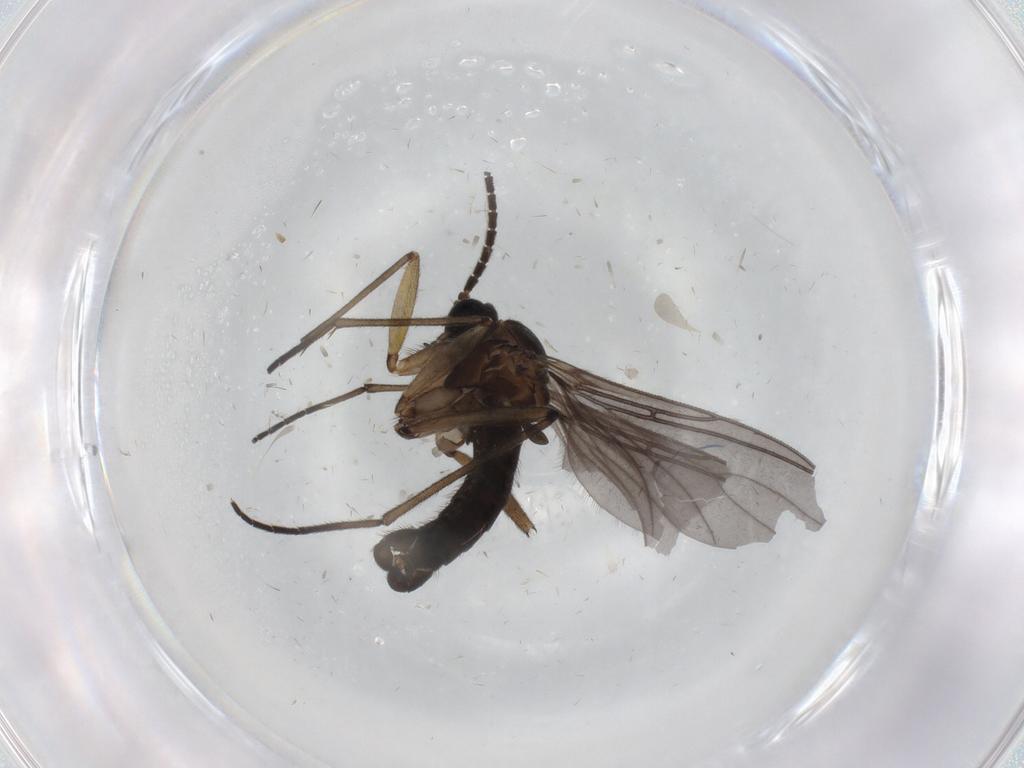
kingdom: Animalia
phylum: Arthropoda
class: Insecta
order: Diptera
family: Sciaridae
